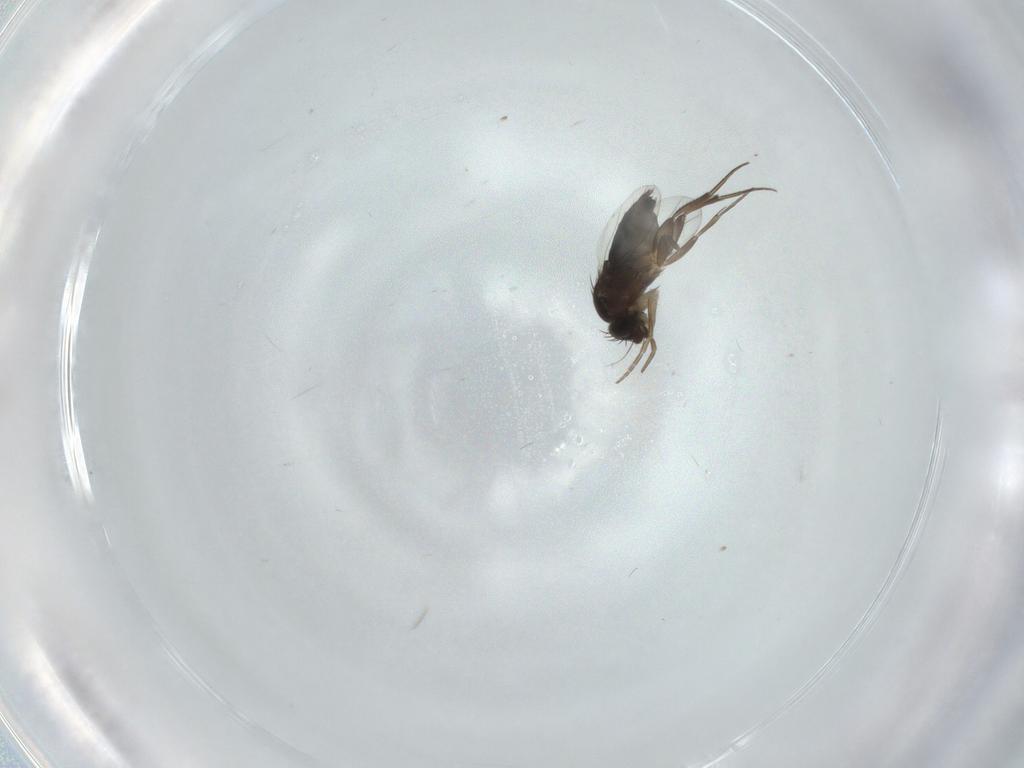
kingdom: Animalia
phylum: Arthropoda
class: Insecta
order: Diptera
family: Phoridae
